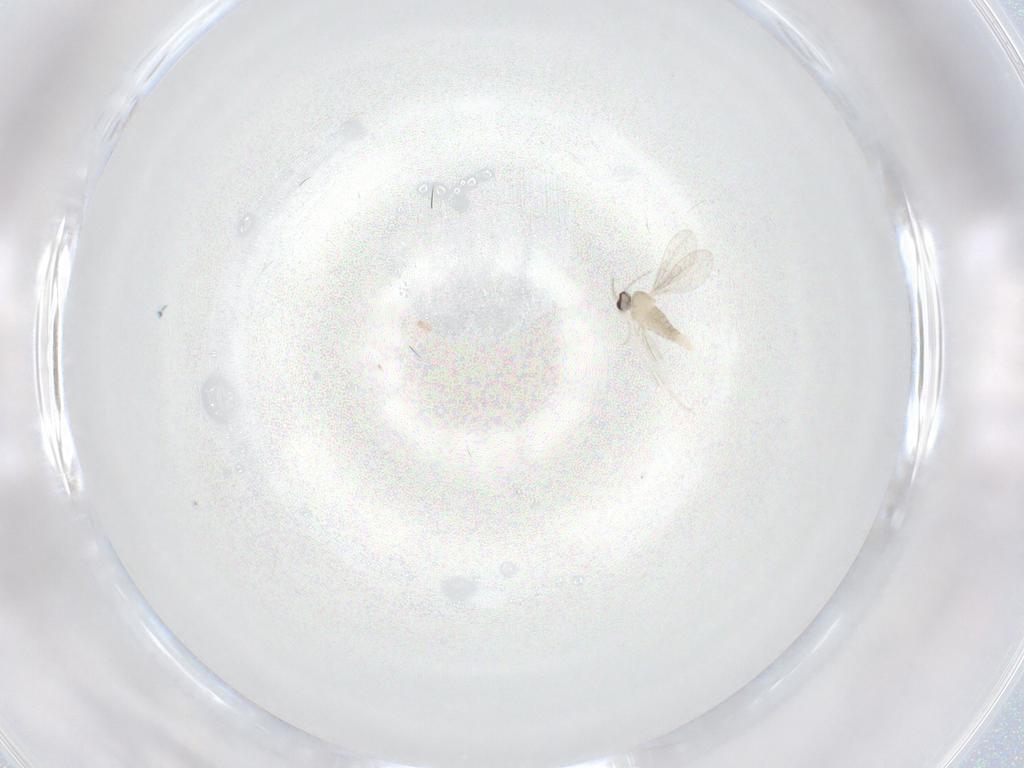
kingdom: Animalia
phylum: Arthropoda
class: Insecta
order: Diptera
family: Cecidomyiidae
